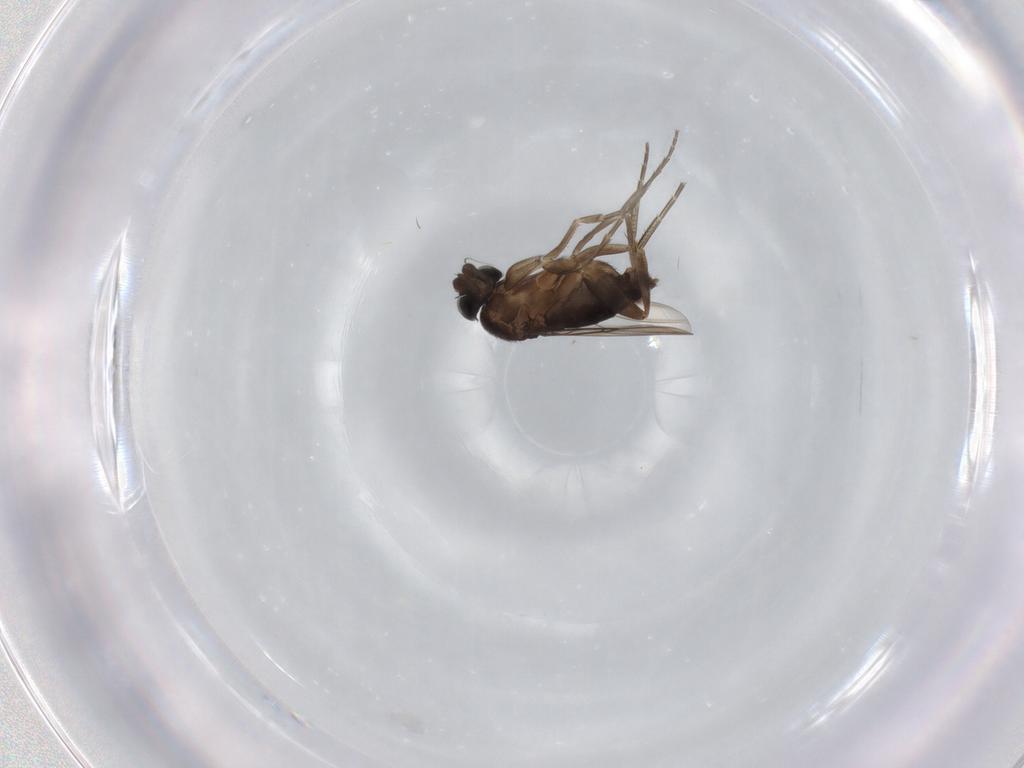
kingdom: Animalia
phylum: Arthropoda
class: Insecta
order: Diptera
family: Phoridae
